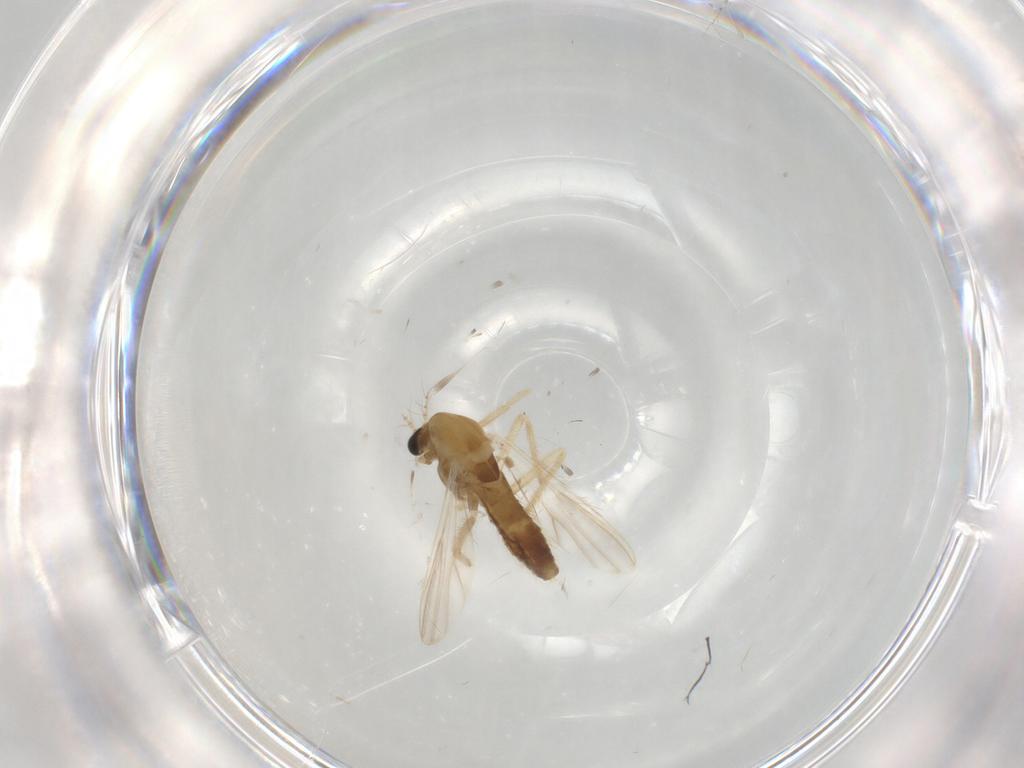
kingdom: Animalia
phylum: Arthropoda
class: Insecta
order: Diptera
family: Chironomidae
